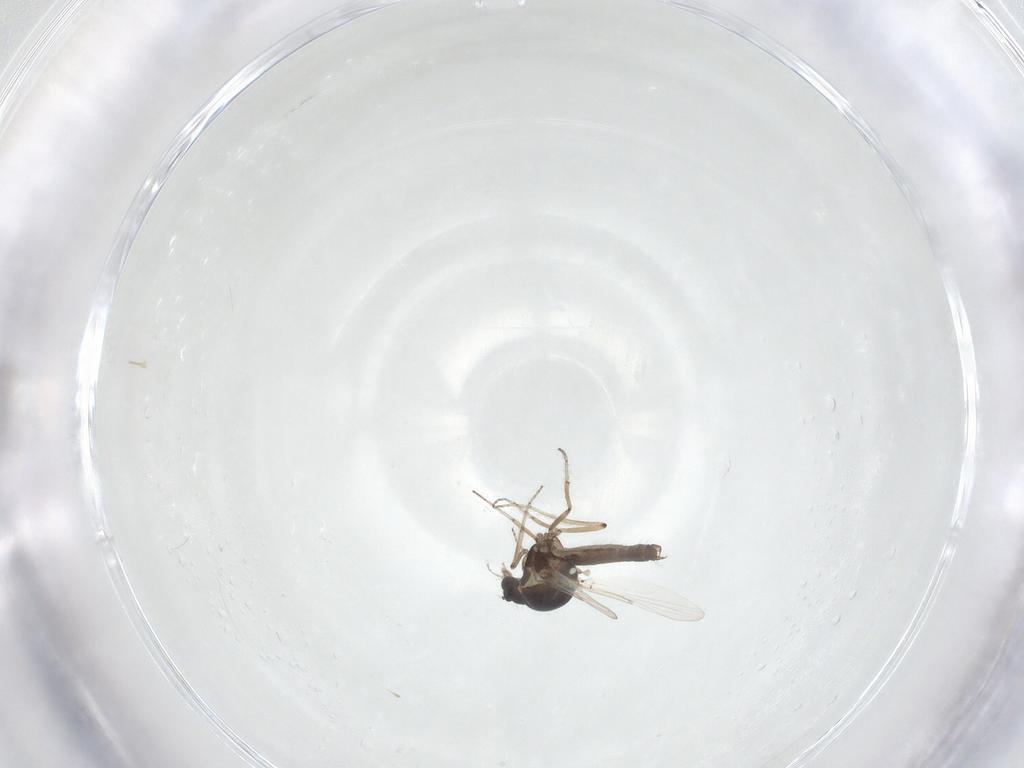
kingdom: Animalia
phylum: Arthropoda
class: Insecta
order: Diptera
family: Ceratopogonidae
